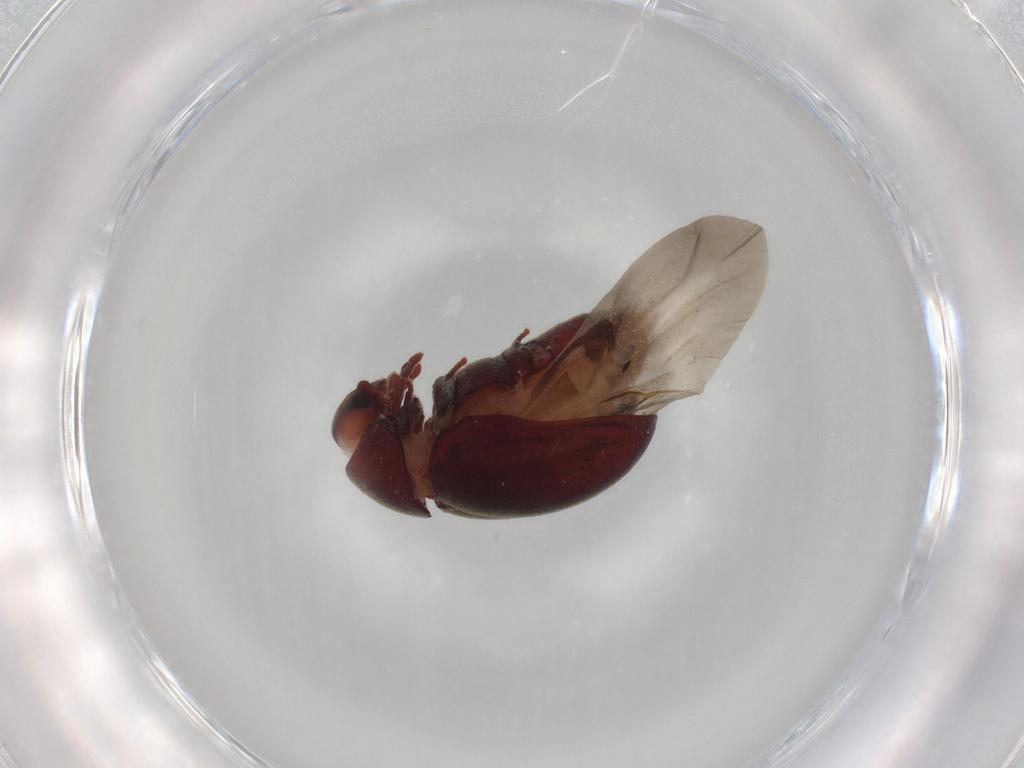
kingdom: Animalia
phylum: Arthropoda
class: Insecta
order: Coleoptera
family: Ptinidae
